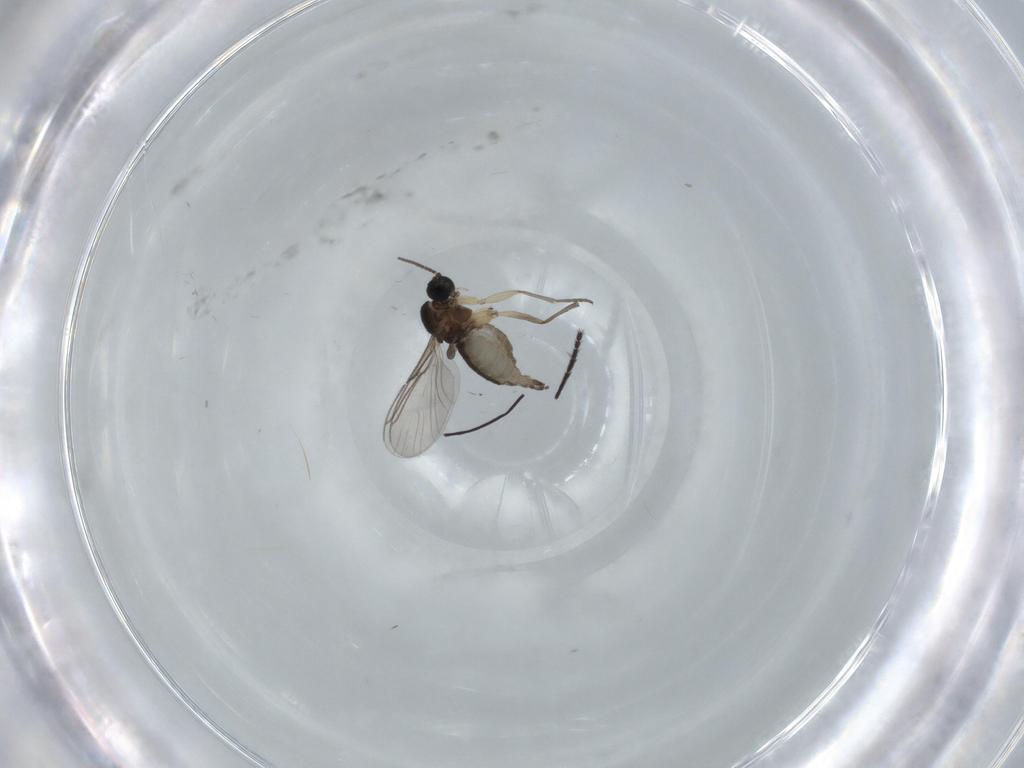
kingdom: Animalia
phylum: Arthropoda
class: Insecta
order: Diptera
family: Sciaridae
